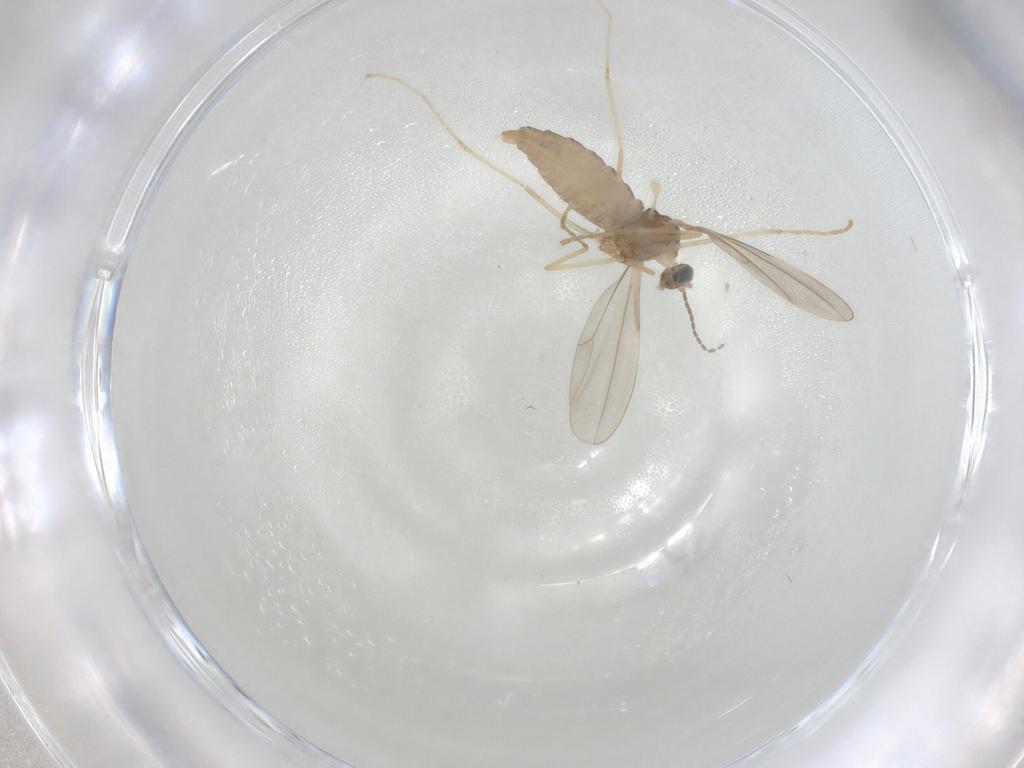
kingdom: Animalia
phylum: Arthropoda
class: Insecta
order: Diptera
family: Cecidomyiidae
